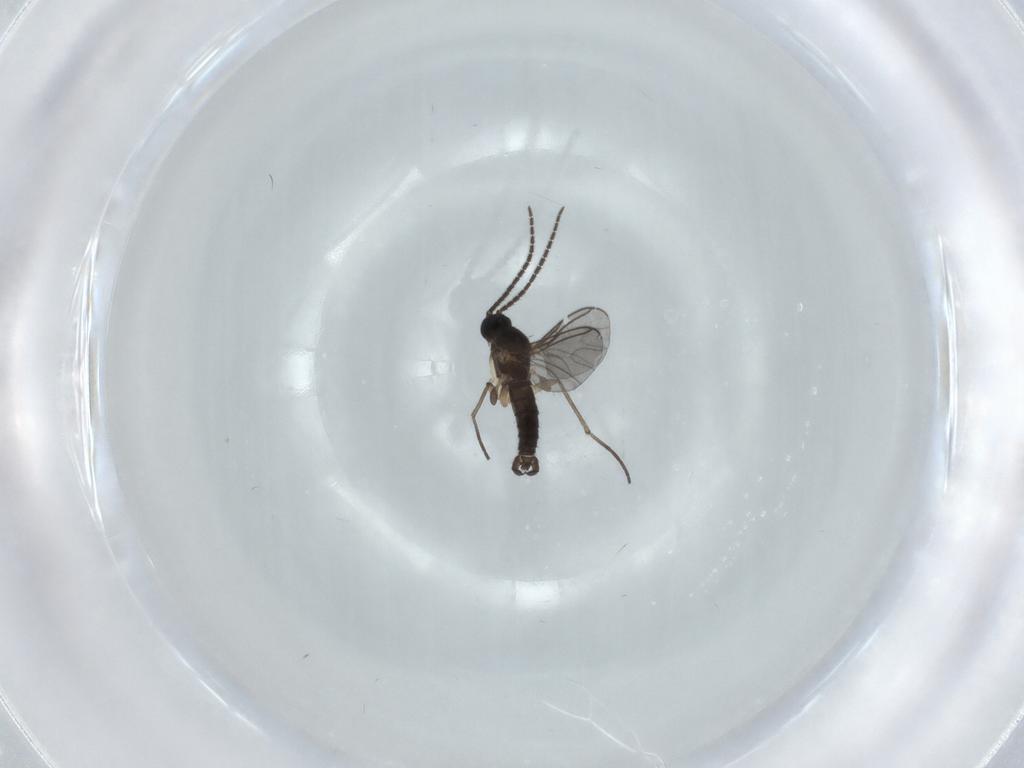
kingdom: Animalia
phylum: Arthropoda
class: Insecta
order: Diptera
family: Sciaridae
